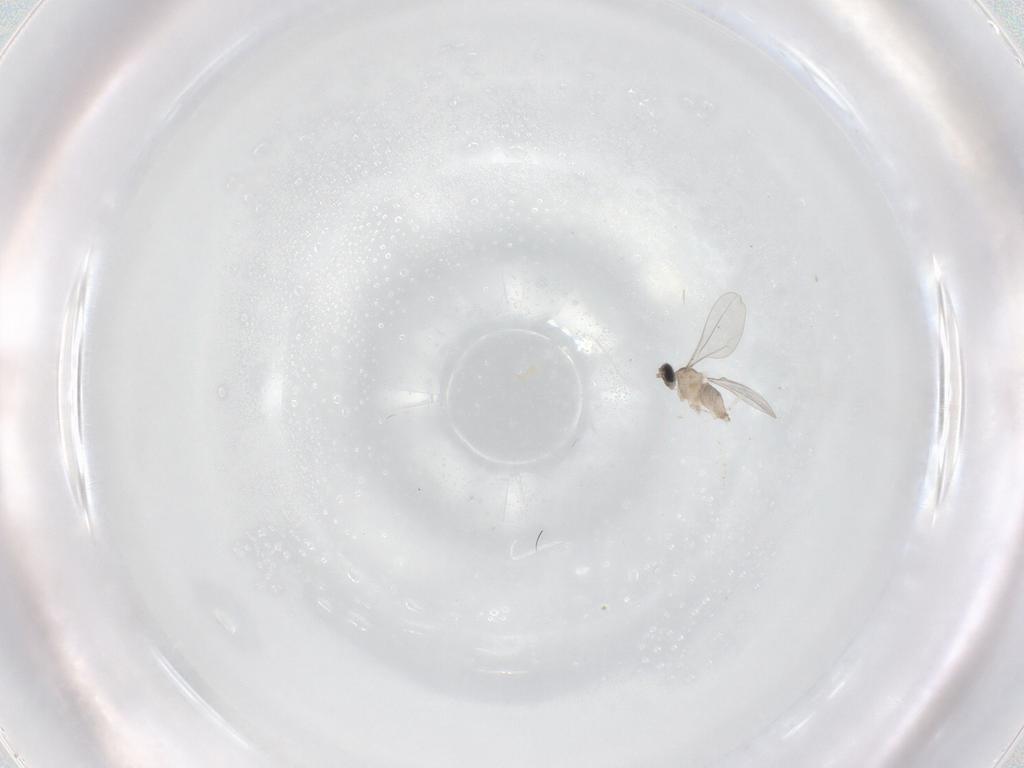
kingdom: Animalia
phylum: Arthropoda
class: Insecta
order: Diptera
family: Cecidomyiidae
